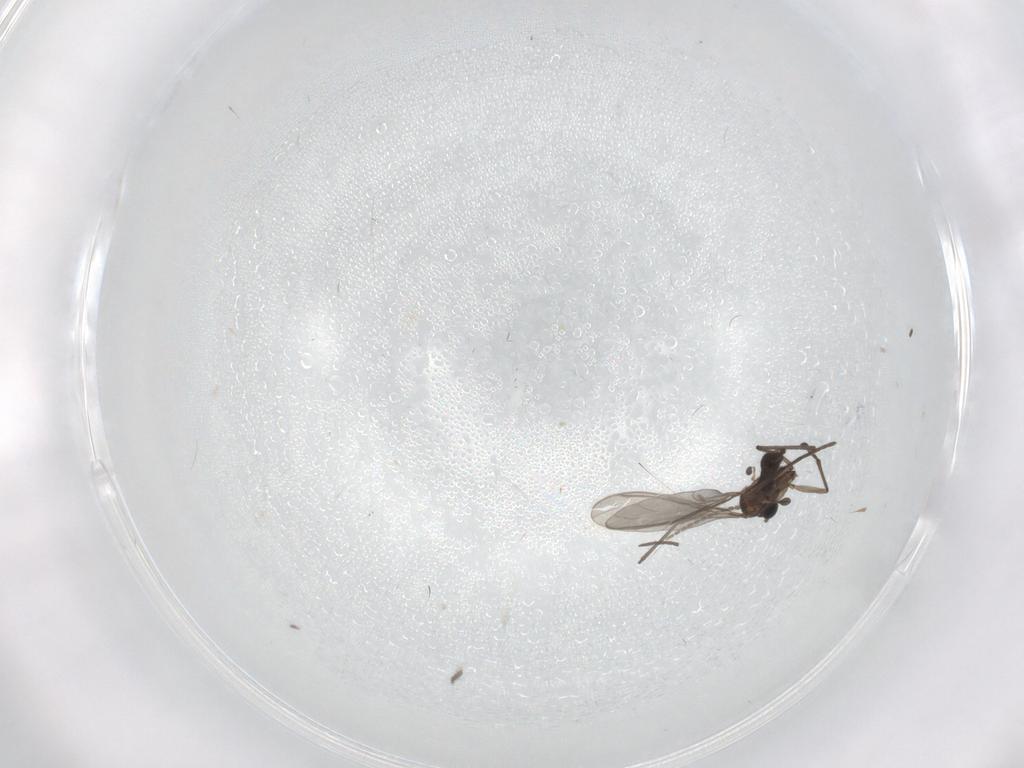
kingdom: Animalia
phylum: Arthropoda
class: Insecta
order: Diptera
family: Sciaridae
